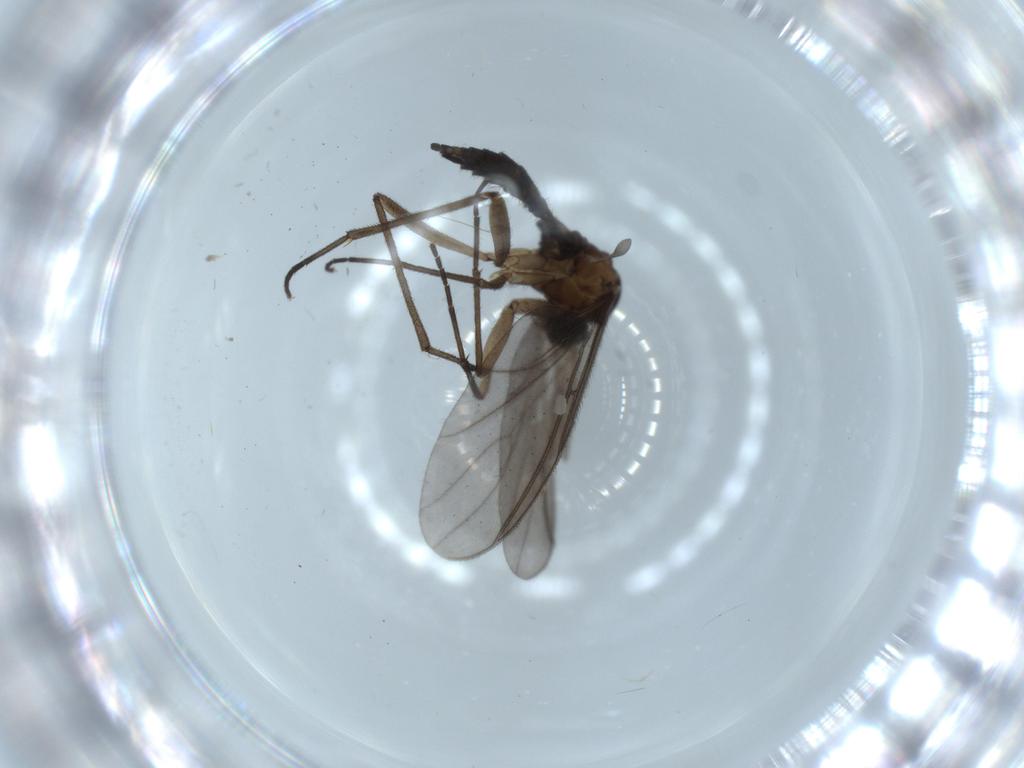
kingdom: Animalia
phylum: Arthropoda
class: Insecta
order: Diptera
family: Sciaridae
